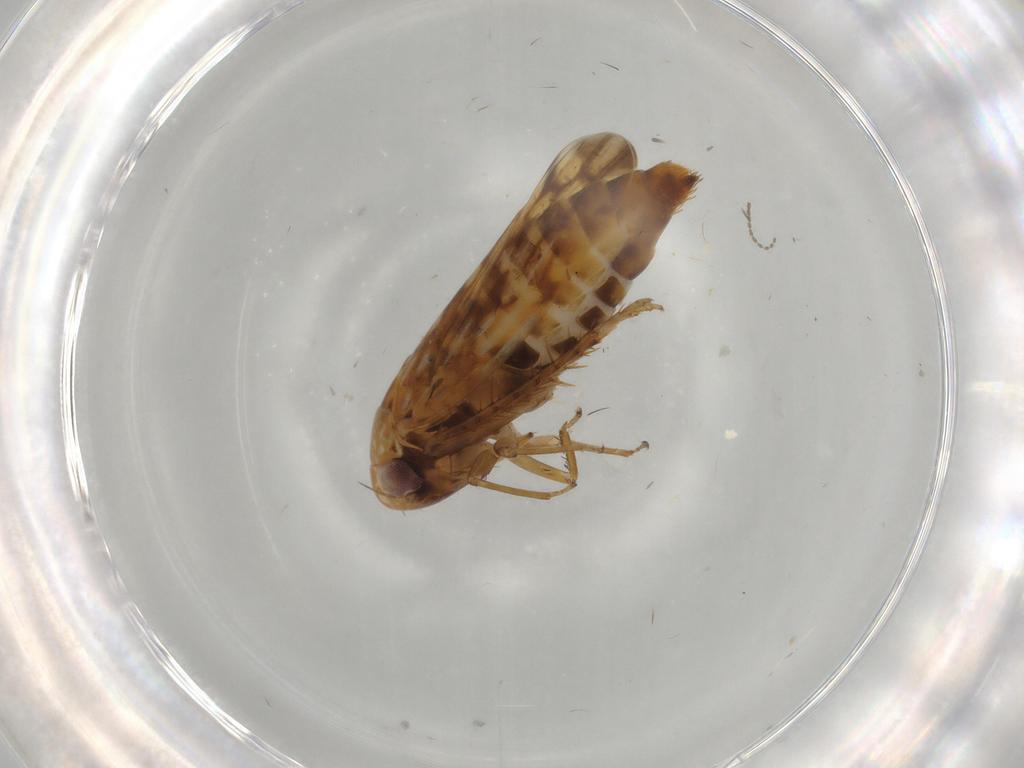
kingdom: Animalia
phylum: Arthropoda
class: Insecta
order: Hemiptera
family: Cicadellidae
